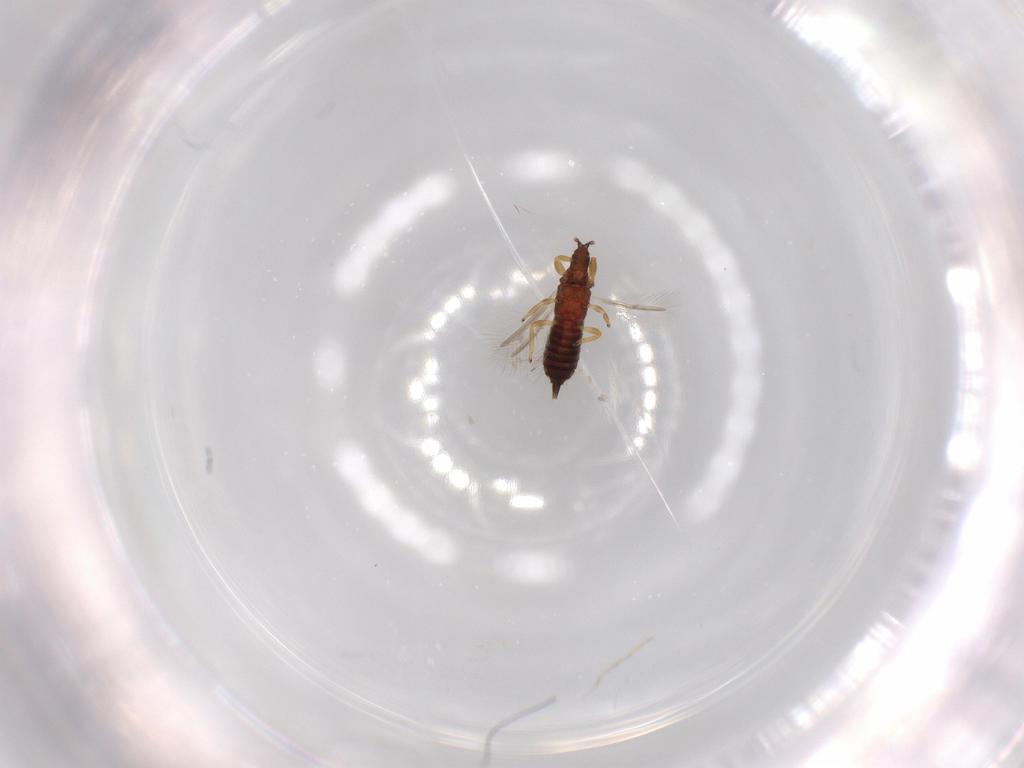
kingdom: Animalia
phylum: Arthropoda
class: Insecta
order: Thysanoptera
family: Phlaeothripidae
